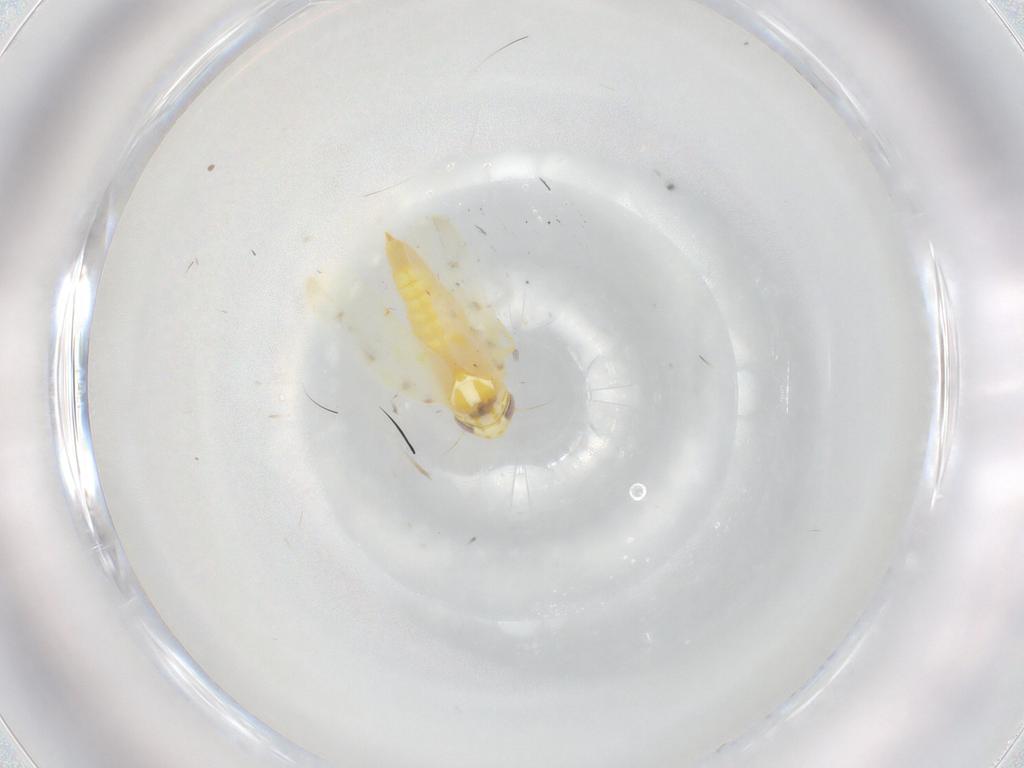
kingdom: Animalia
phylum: Arthropoda
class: Insecta
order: Hemiptera
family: Cicadellidae
